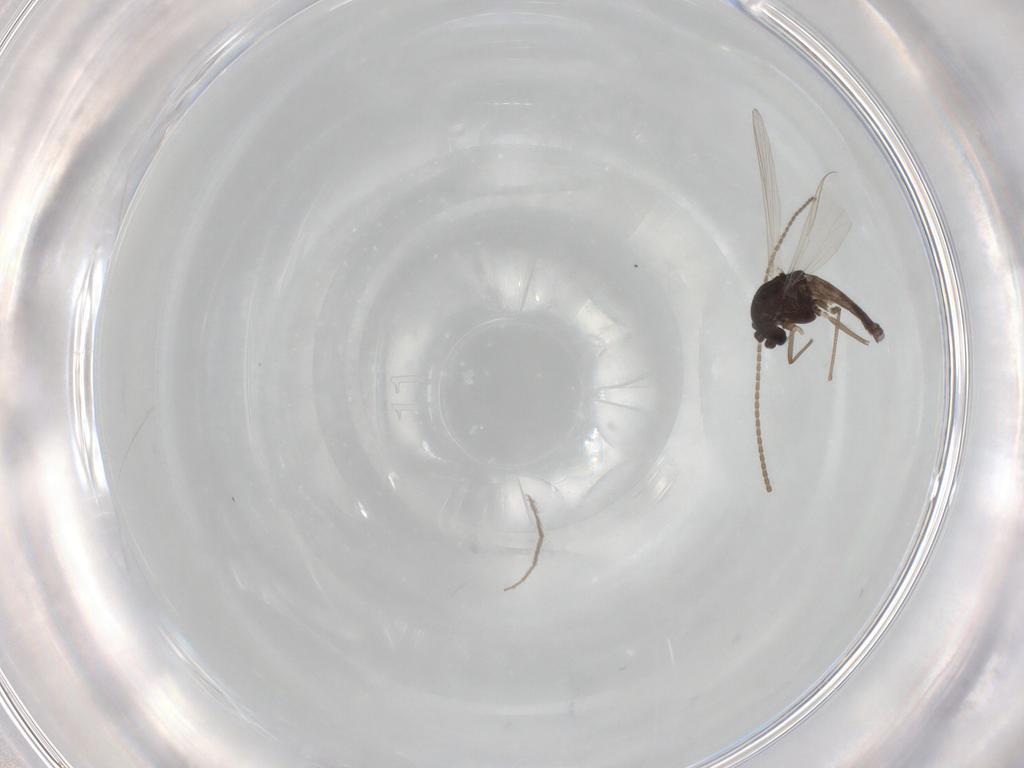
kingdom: Animalia
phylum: Arthropoda
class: Insecta
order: Diptera
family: Chironomidae
